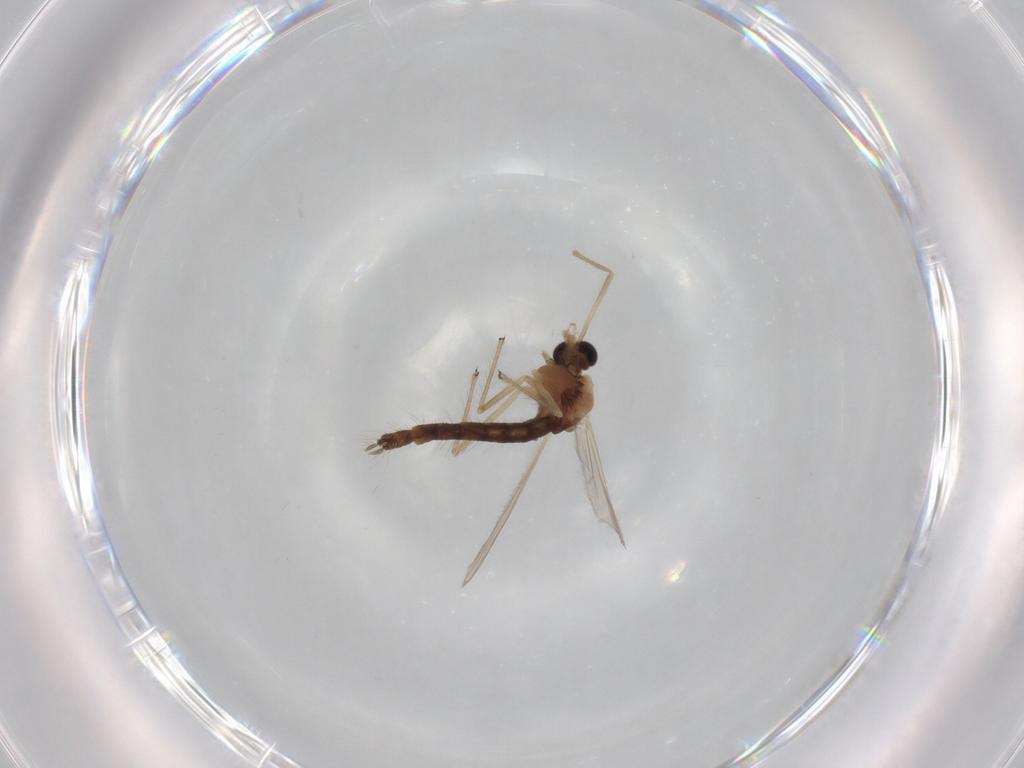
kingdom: Animalia
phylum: Arthropoda
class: Insecta
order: Diptera
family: Chironomidae
